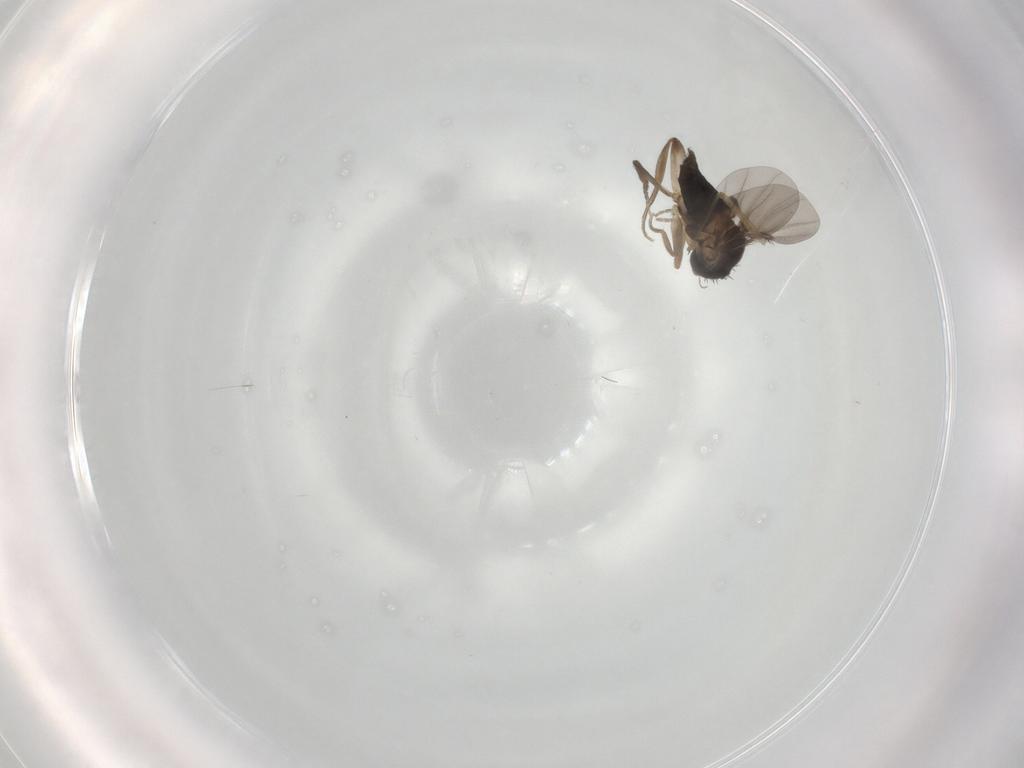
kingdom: Animalia
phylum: Arthropoda
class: Insecta
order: Diptera
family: Phoridae
